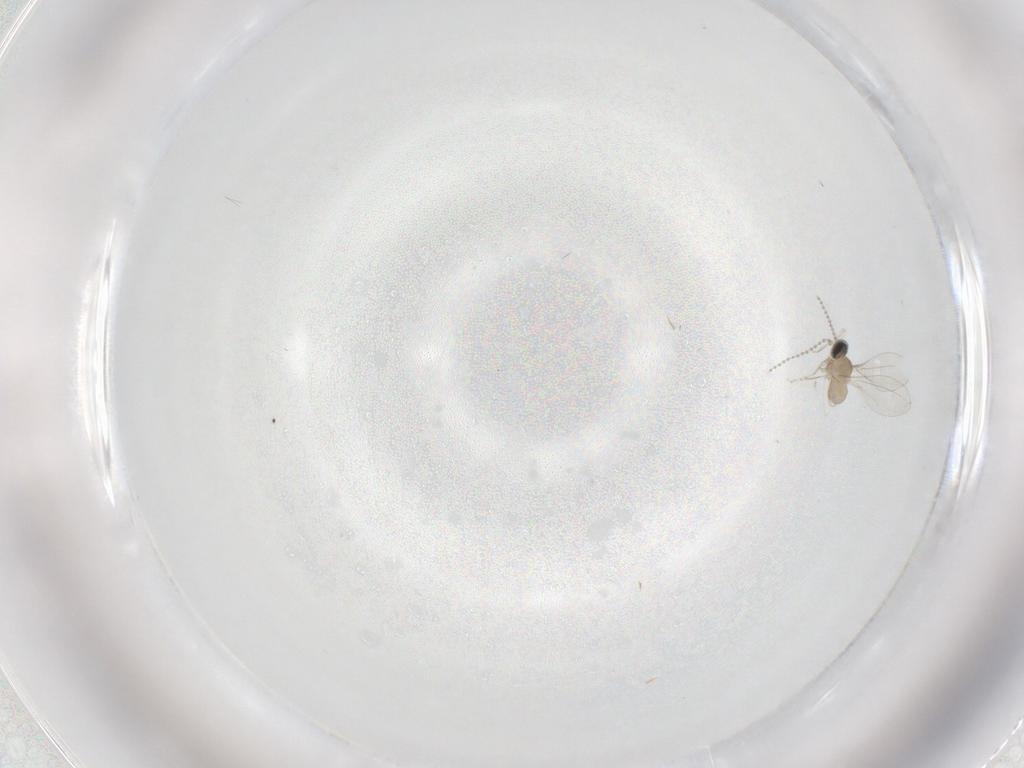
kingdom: Animalia
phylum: Arthropoda
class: Insecta
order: Diptera
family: Cecidomyiidae
